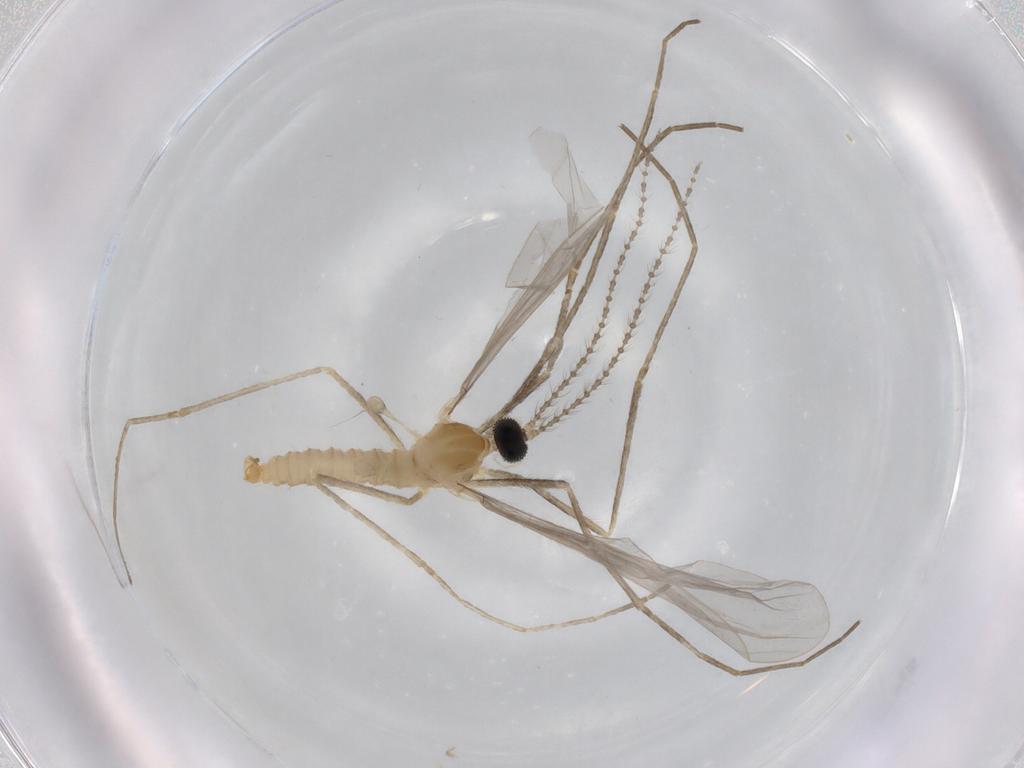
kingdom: Animalia
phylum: Arthropoda
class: Insecta
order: Diptera
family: Cecidomyiidae
